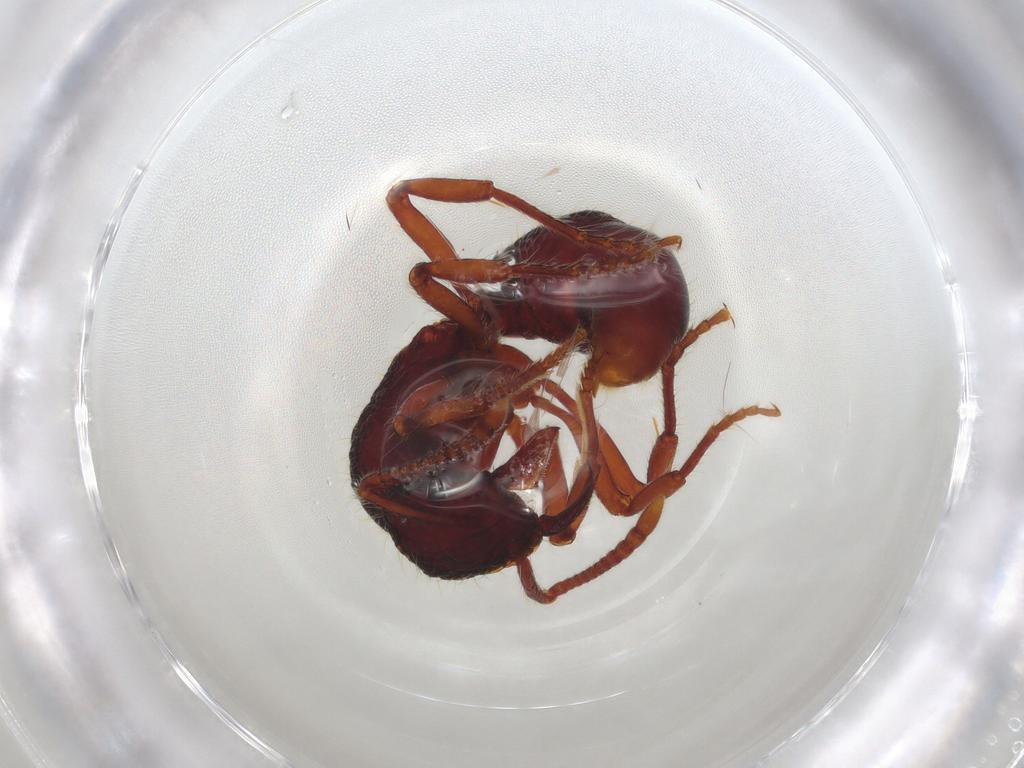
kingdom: Animalia
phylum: Arthropoda
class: Insecta
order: Hymenoptera
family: Formicidae
